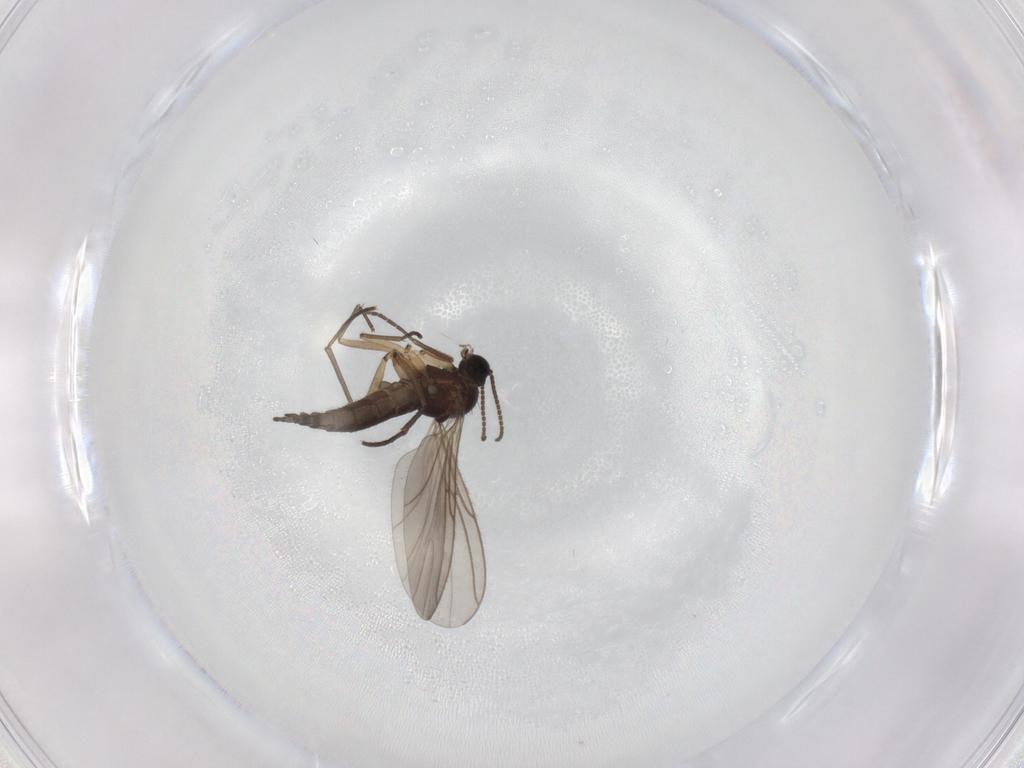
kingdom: Animalia
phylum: Arthropoda
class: Insecta
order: Diptera
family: Sciaridae
